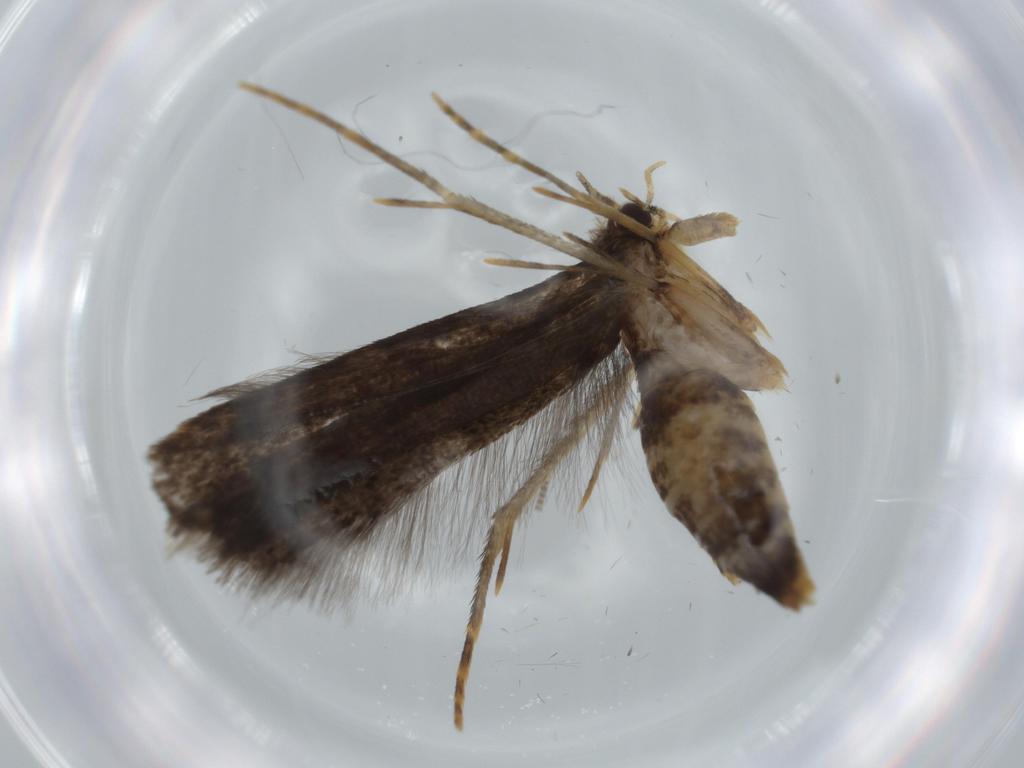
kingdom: Animalia
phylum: Arthropoda
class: Insecta
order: Lepidoptera
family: Tineidae
